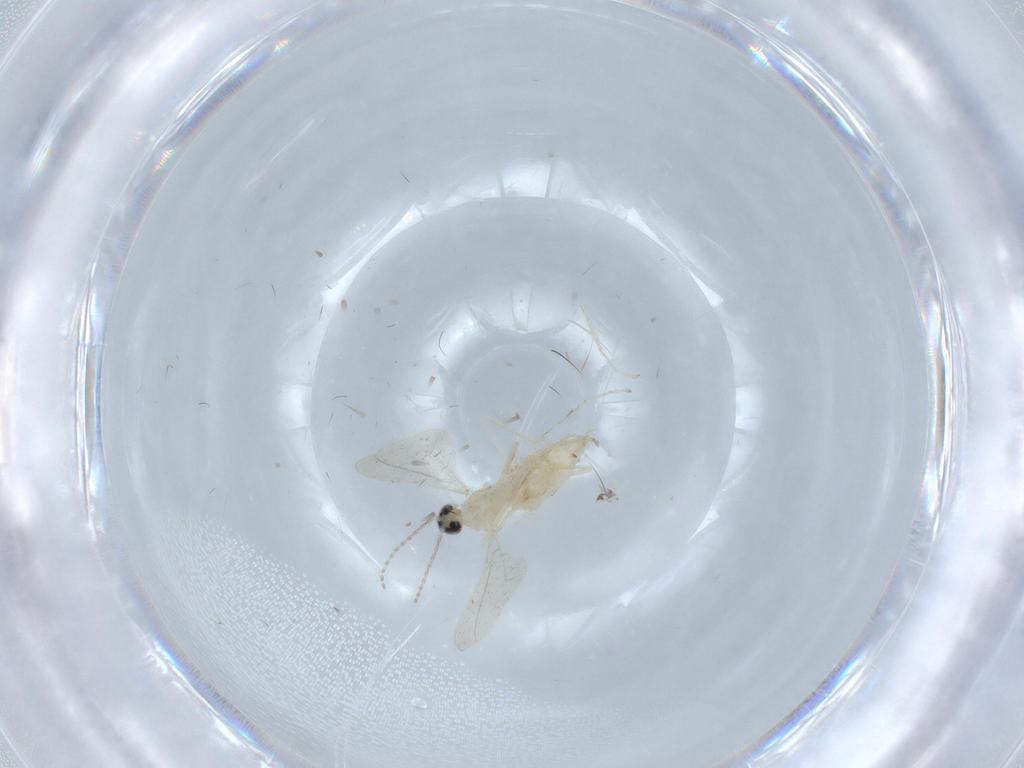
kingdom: Animalia
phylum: Arthropoda
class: Insecta
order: Diptera
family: Cecidomyiidae
